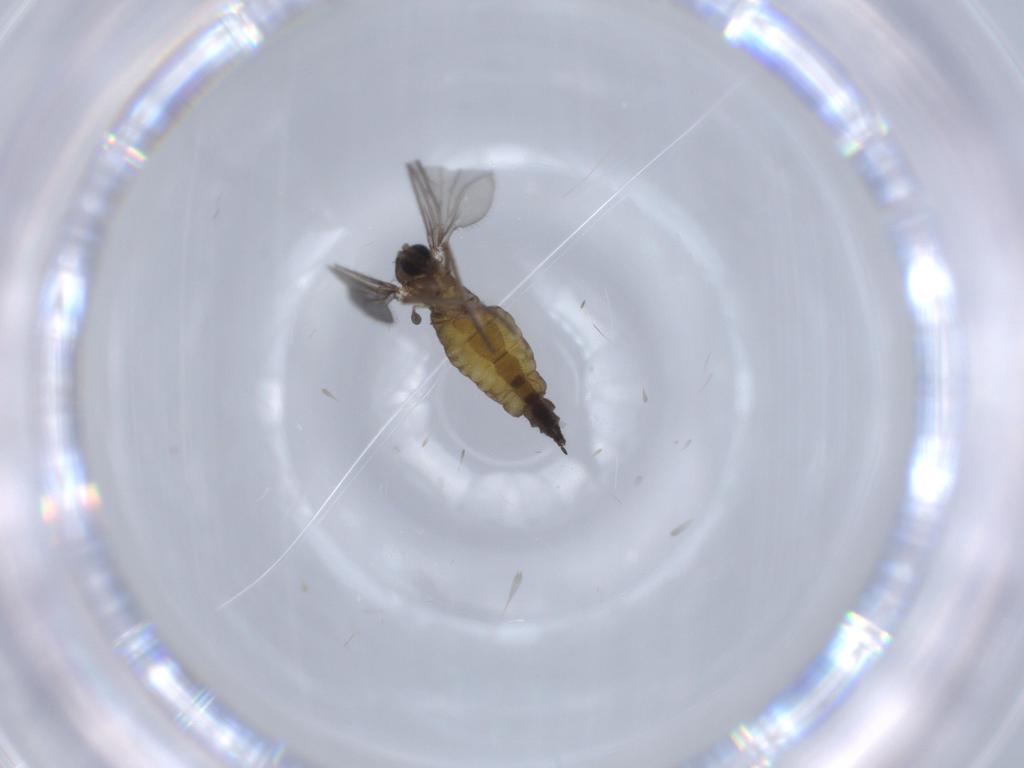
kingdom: Animalia
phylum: Arthropoda
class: Insecta
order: Diptera
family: Sciaridae
